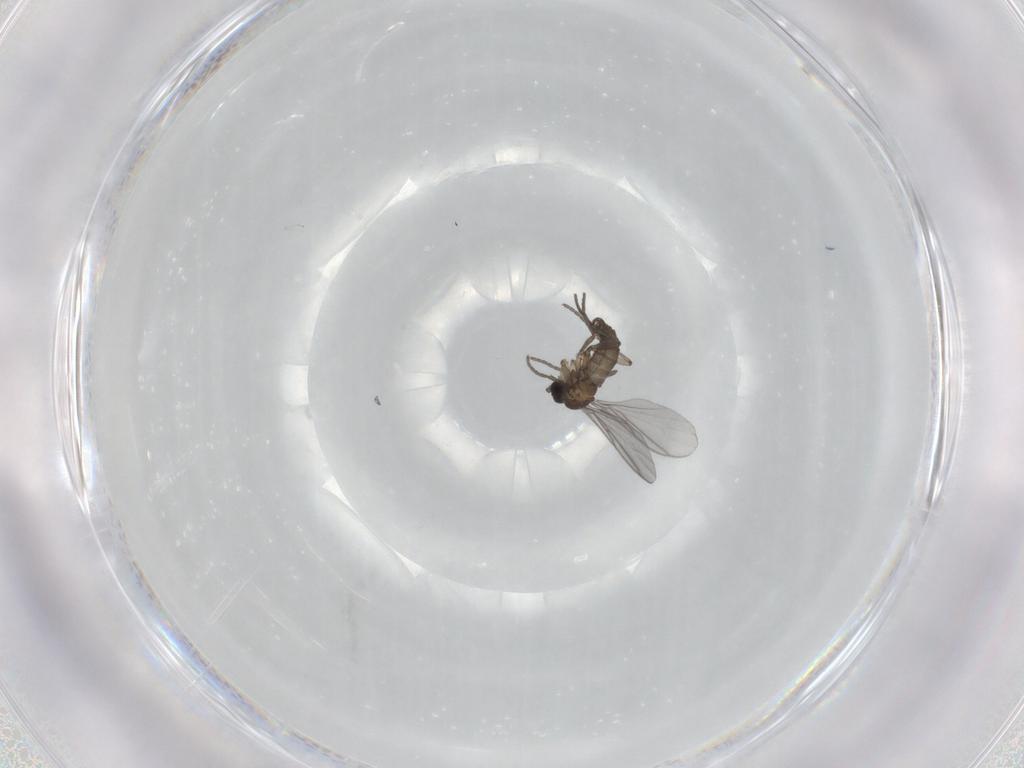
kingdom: Animalia
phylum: Arthropoda
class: Insecta
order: Diptera
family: Sciaridae
